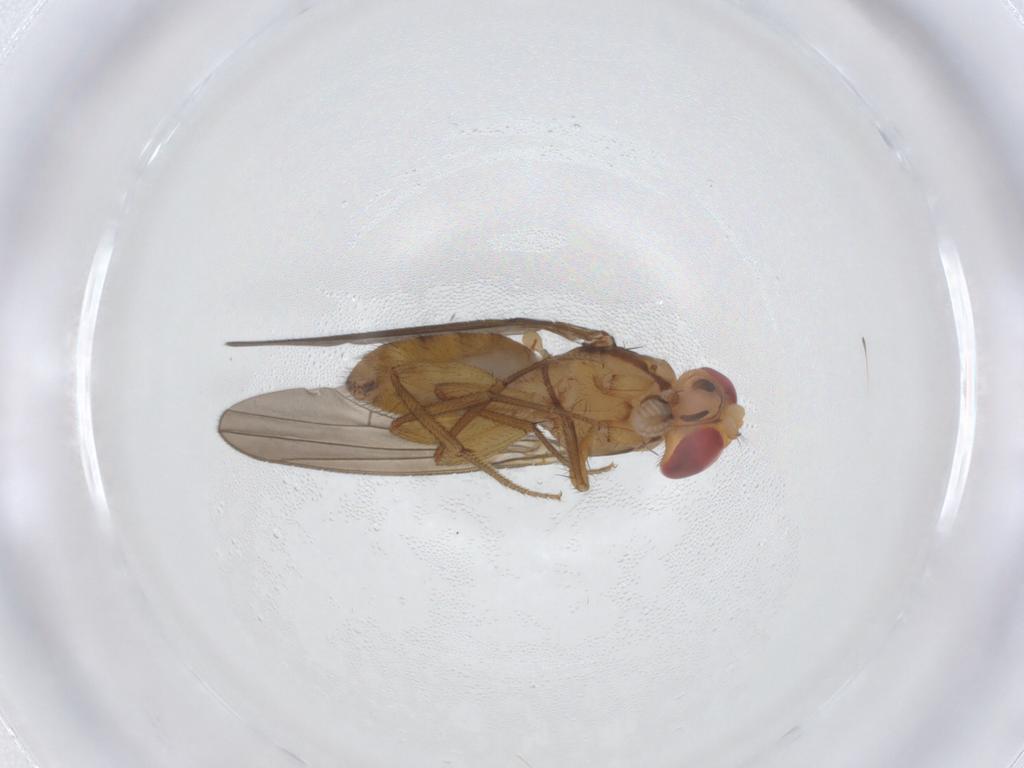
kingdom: Animalia
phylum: Arthropoda
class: Insecta
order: Diptera
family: Drosophilidae
